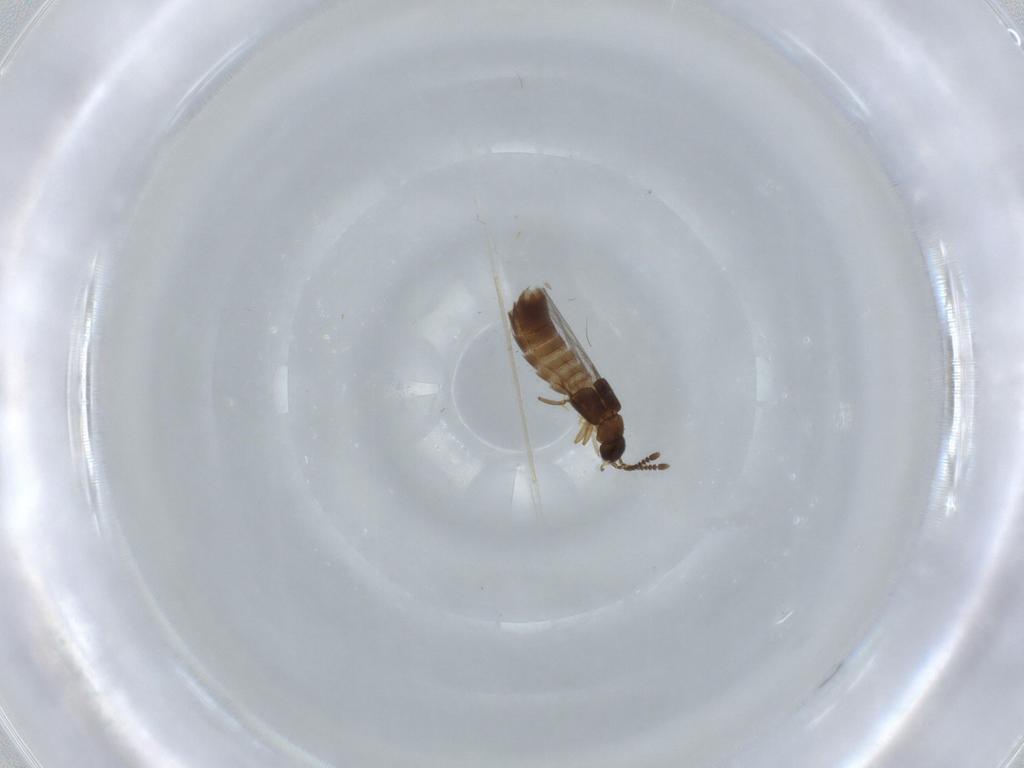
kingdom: Animalia
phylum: Arthropoda
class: Insecta
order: Coleoptera
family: Staphylinidae
